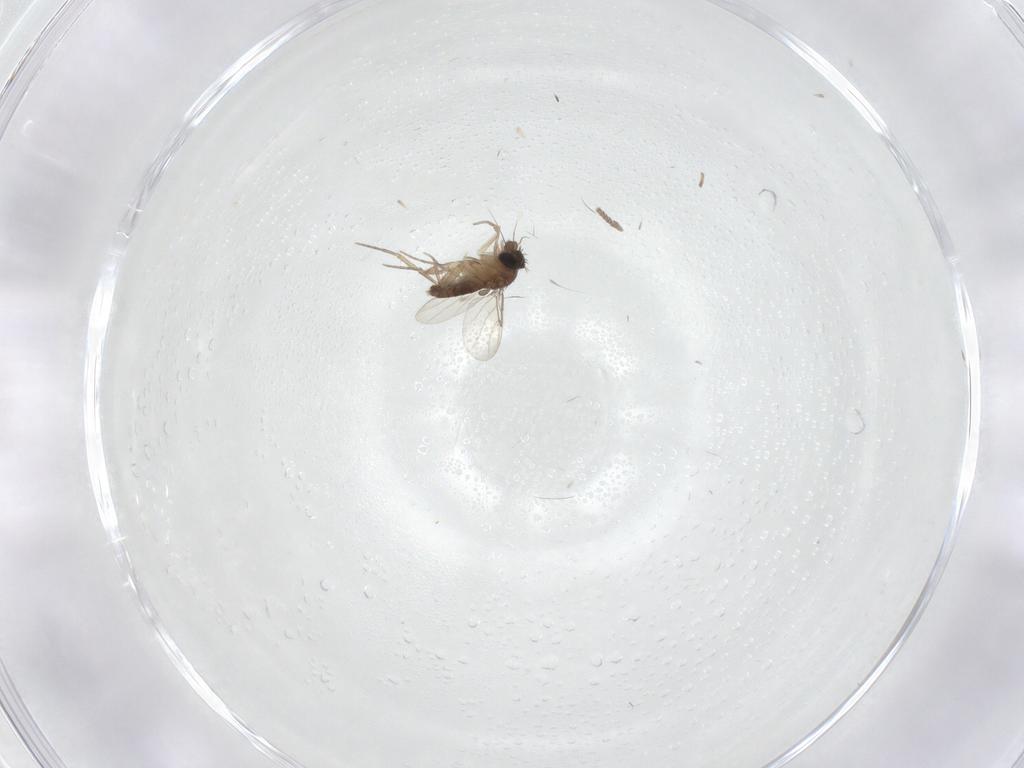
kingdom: Animalia
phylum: Arthropoda
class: Insecta
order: Diptera
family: Phoridae
